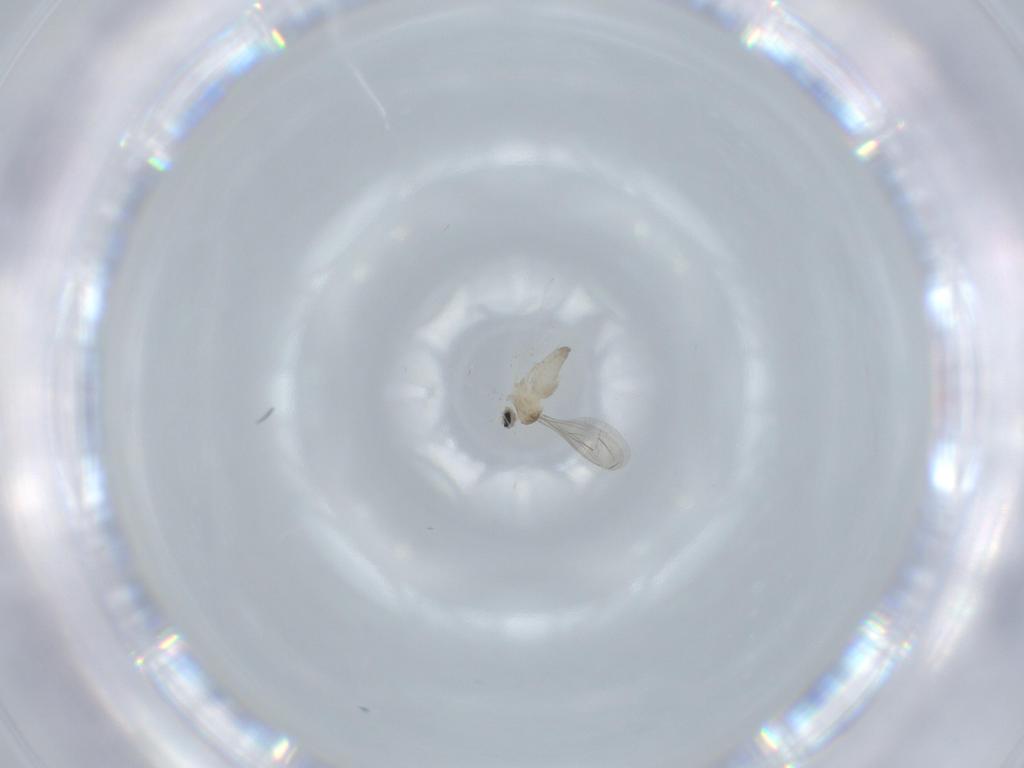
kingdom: Animalia
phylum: Arthropoda
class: Insecta
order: Diptera
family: Cecidomyiidae
